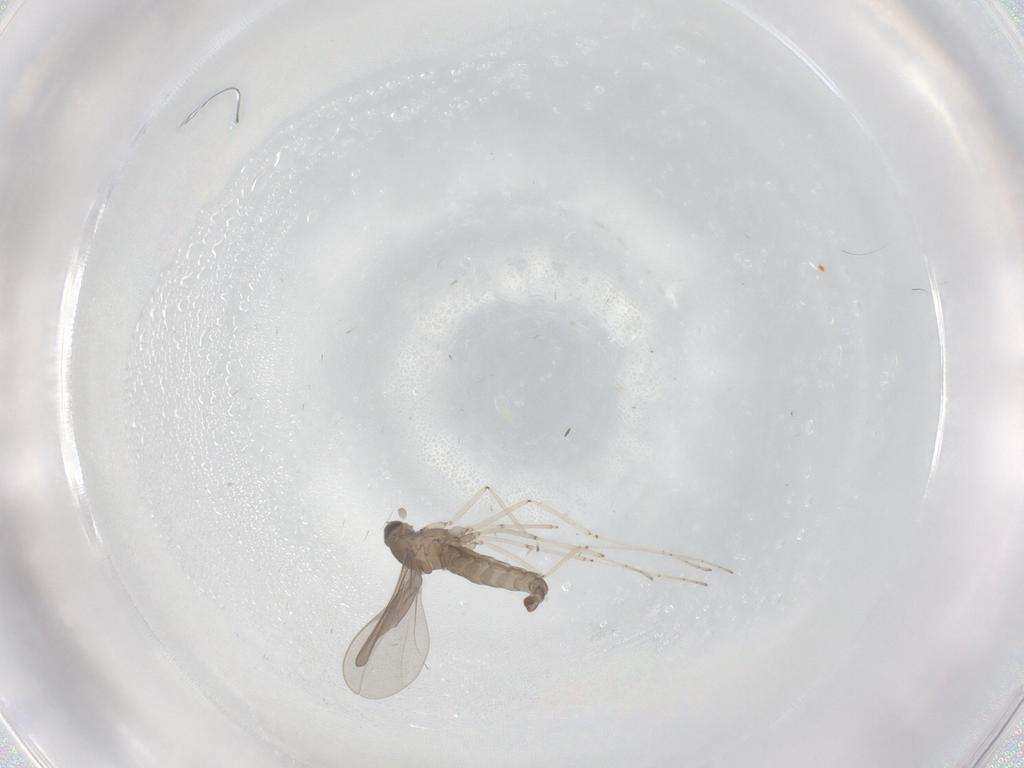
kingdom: Animalia
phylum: Arthropoda
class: Insecta
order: Diptera
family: Cecidomyiidae
